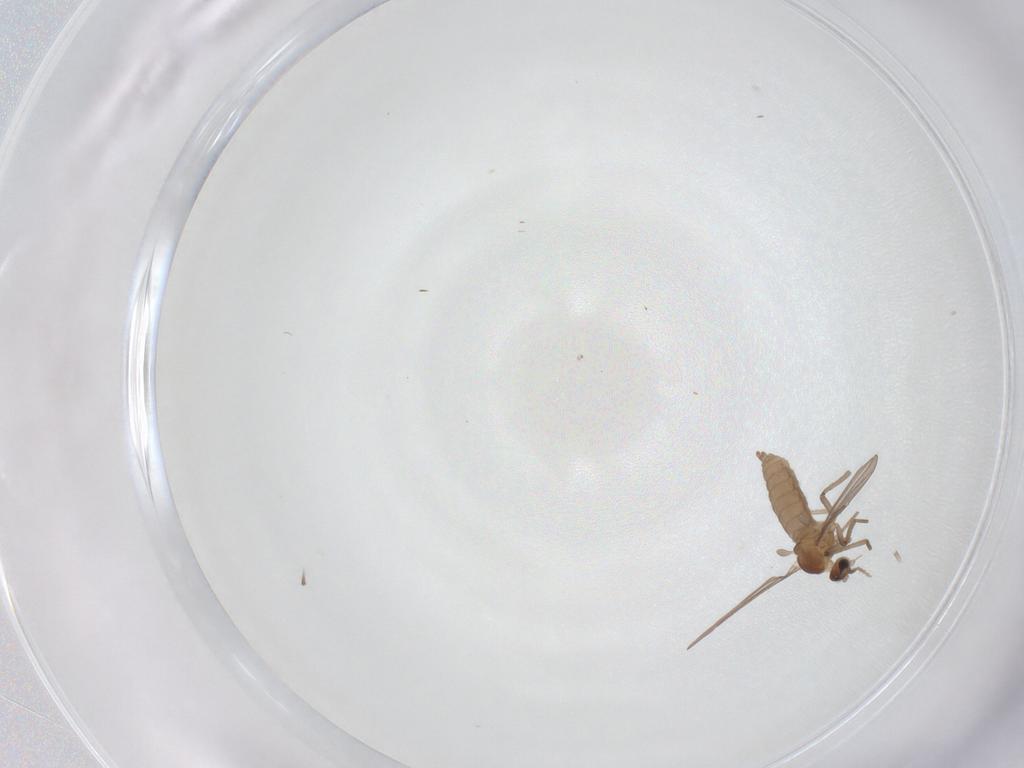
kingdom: Animalia
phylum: Arthropoda
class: Insecta
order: Diptera
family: Cecidomyiidae
